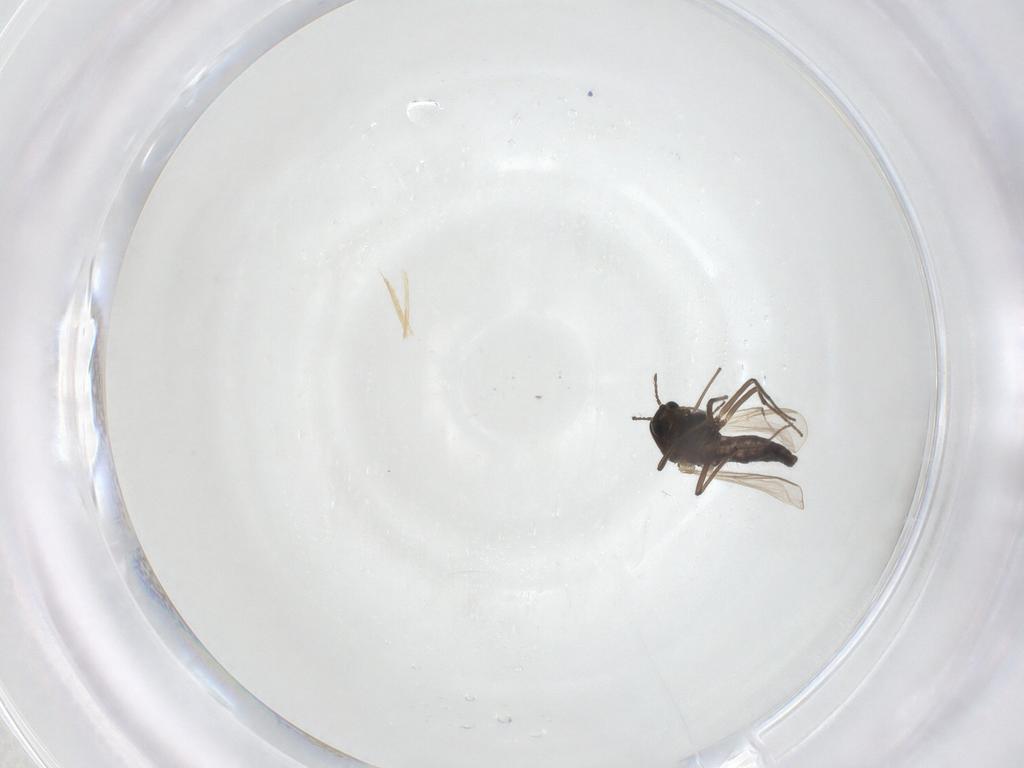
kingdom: Animalia
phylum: Arthropoda
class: Insecta
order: Diptera
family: Chironomidae
